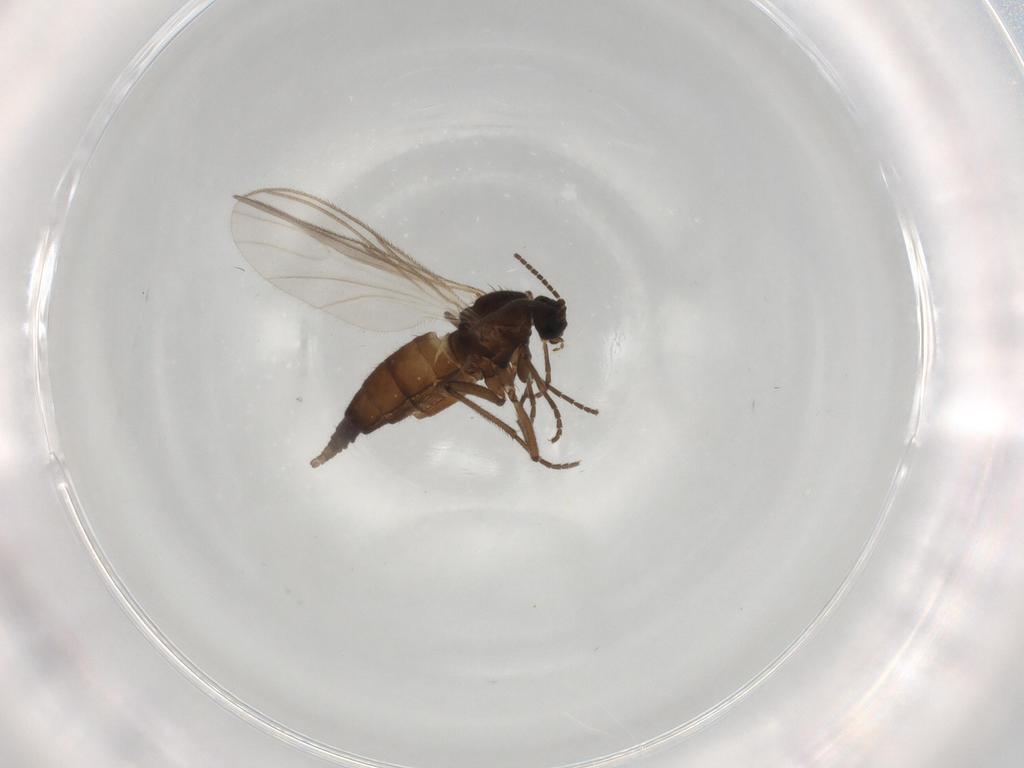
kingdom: Animalia
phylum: Arthropoda
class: Insecta
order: Diptera
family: Sciaridae
